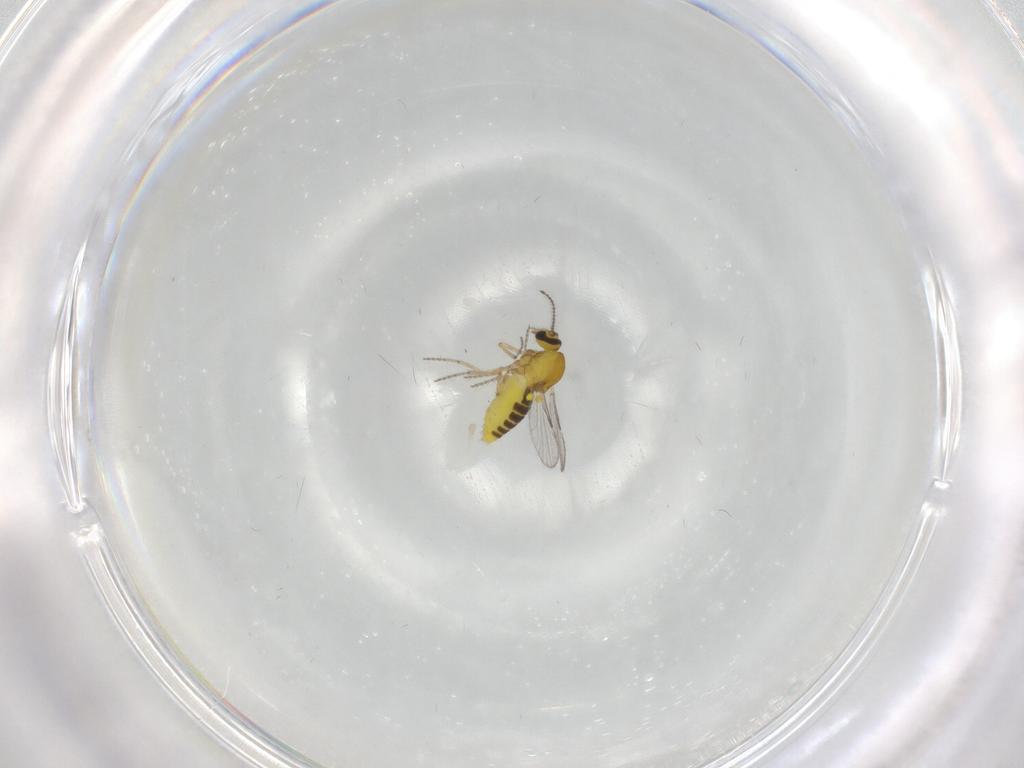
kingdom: Animalia
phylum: Arthropoda
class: Insecta
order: Diptera
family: Ceratopogonidae
